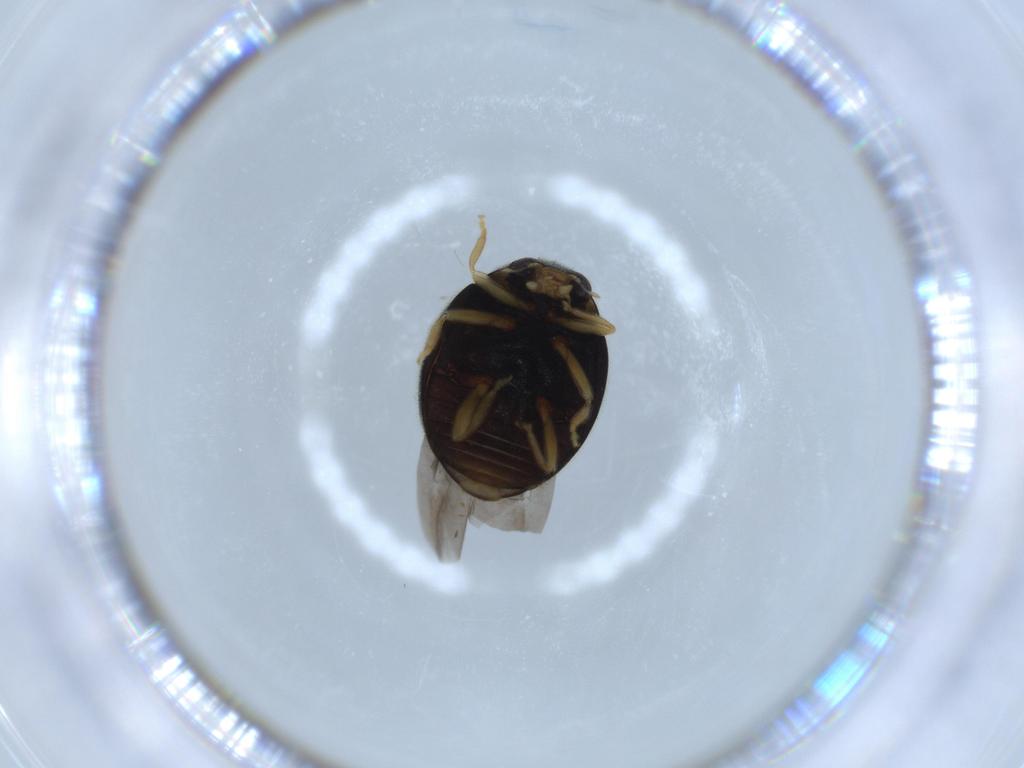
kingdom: Animalia
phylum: Arthropoda
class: Insecta
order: Coleoptera
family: Coccinellidae
